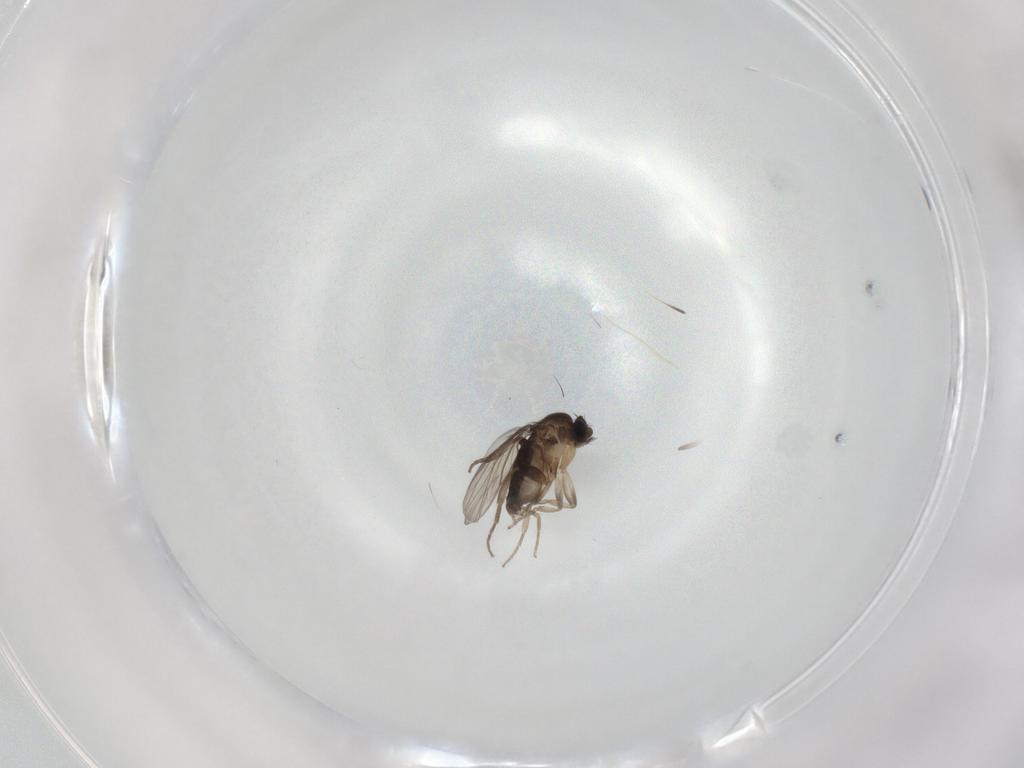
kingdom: Animalia
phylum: Arthropoda
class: Insecta
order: Diptera
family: Phoridae
